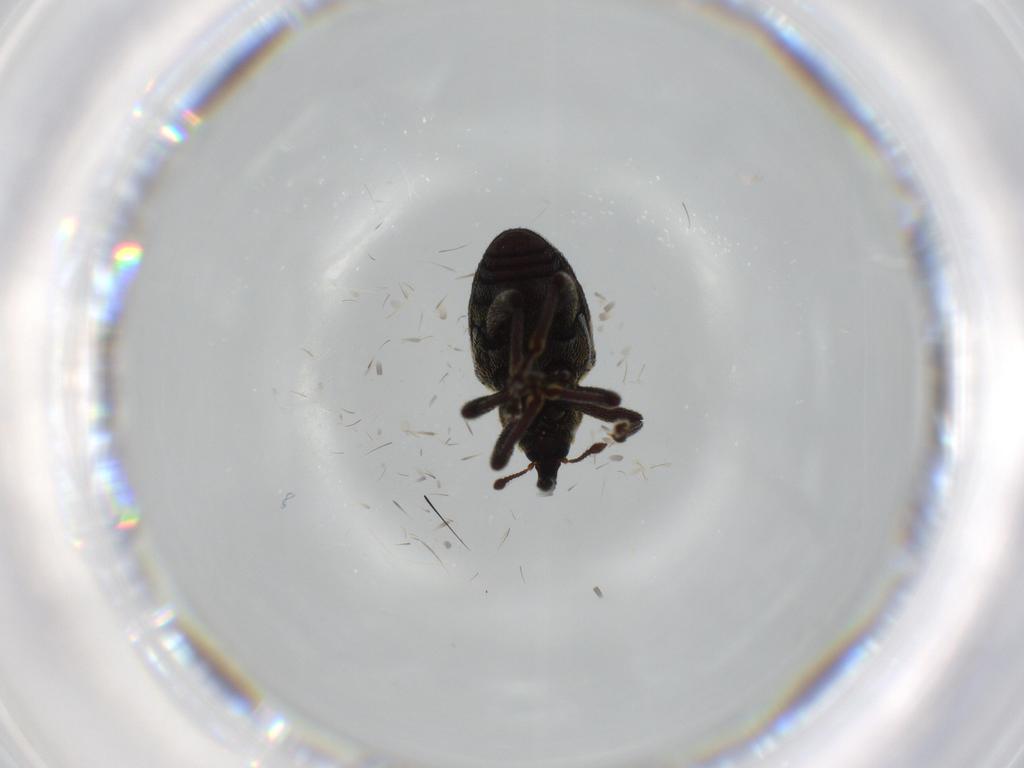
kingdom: Animalia
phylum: Arthropoda
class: Insecta
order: Coleoptera
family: Curculionidae
